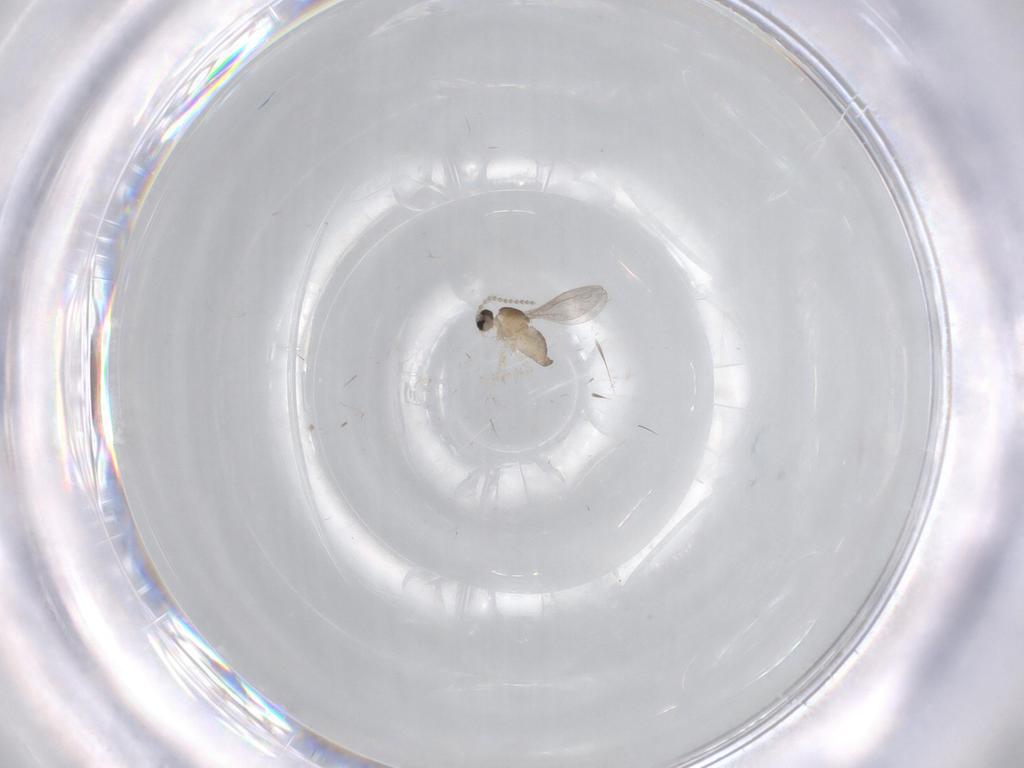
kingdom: Animalia
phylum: Arthropoda
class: Insecta
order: Diptera
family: Cecidomyiidae
